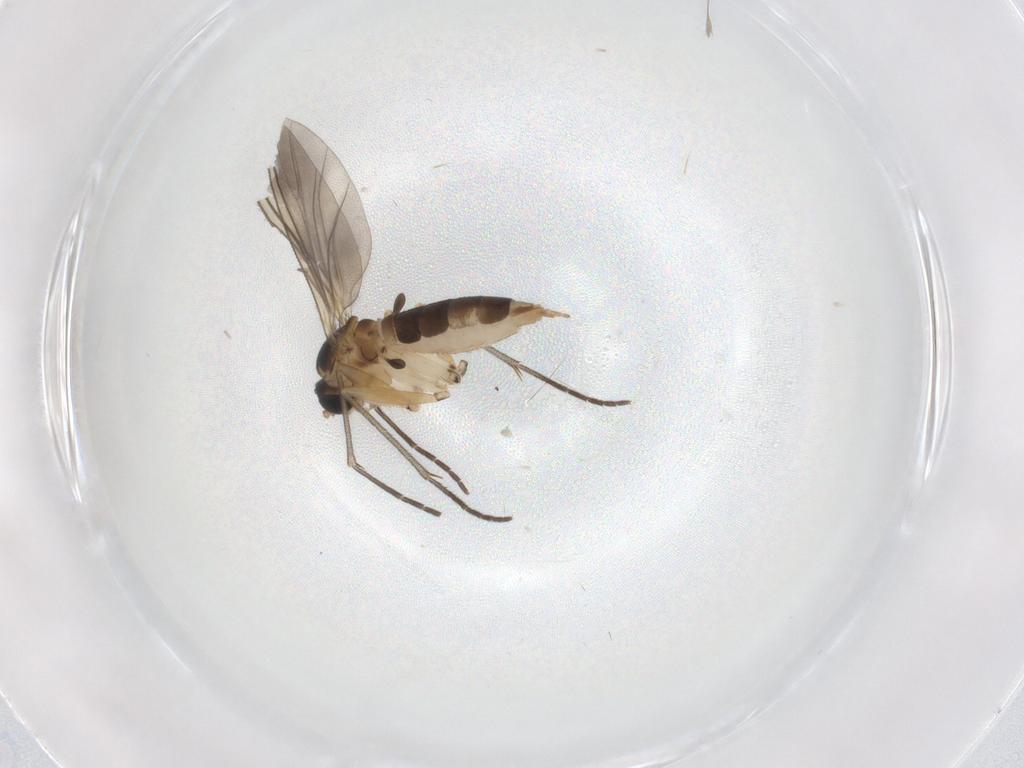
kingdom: Animalia
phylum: Arthropoda
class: Insecta
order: Diptera
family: Cecidomyiidae
